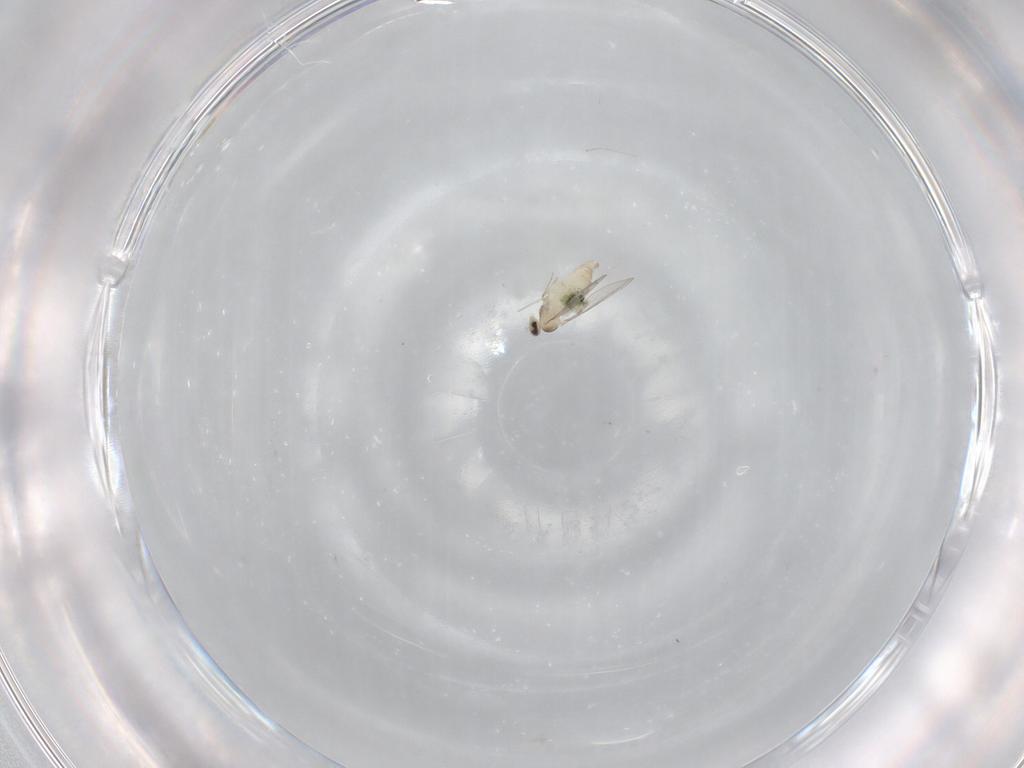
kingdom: Animalia
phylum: Arthropoda
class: Insecta
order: Diptera
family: Cecidomyiidae
